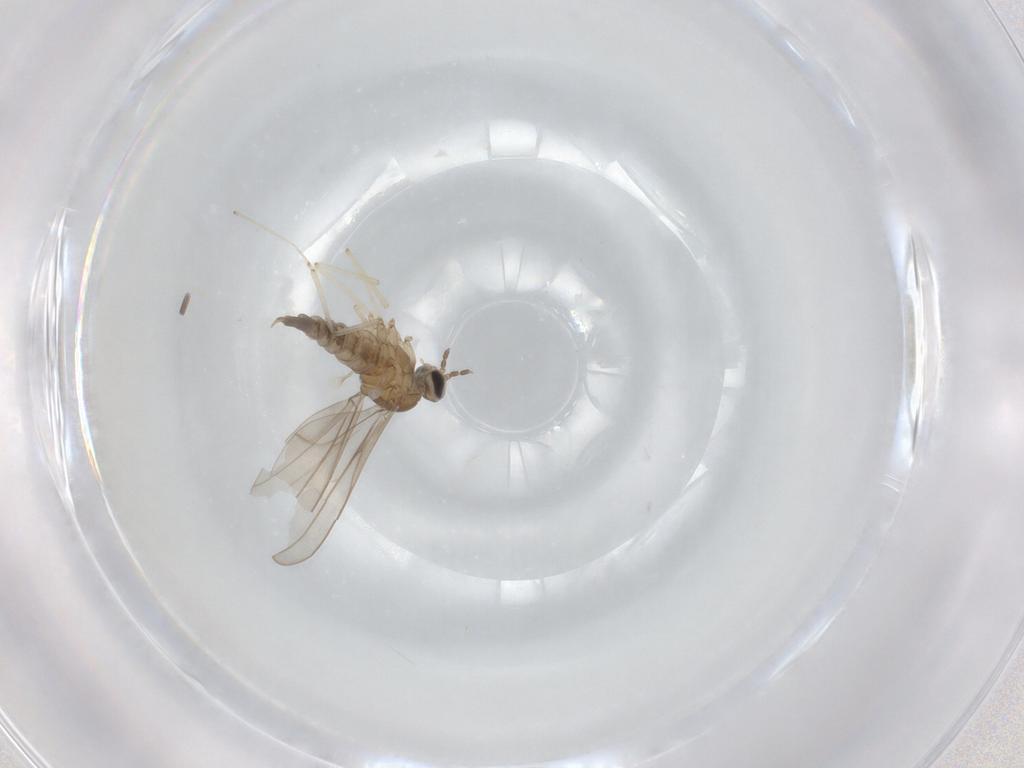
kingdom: Animalia
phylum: Arthropoda
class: Insecta
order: Diptera
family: Cecidomyiidae
